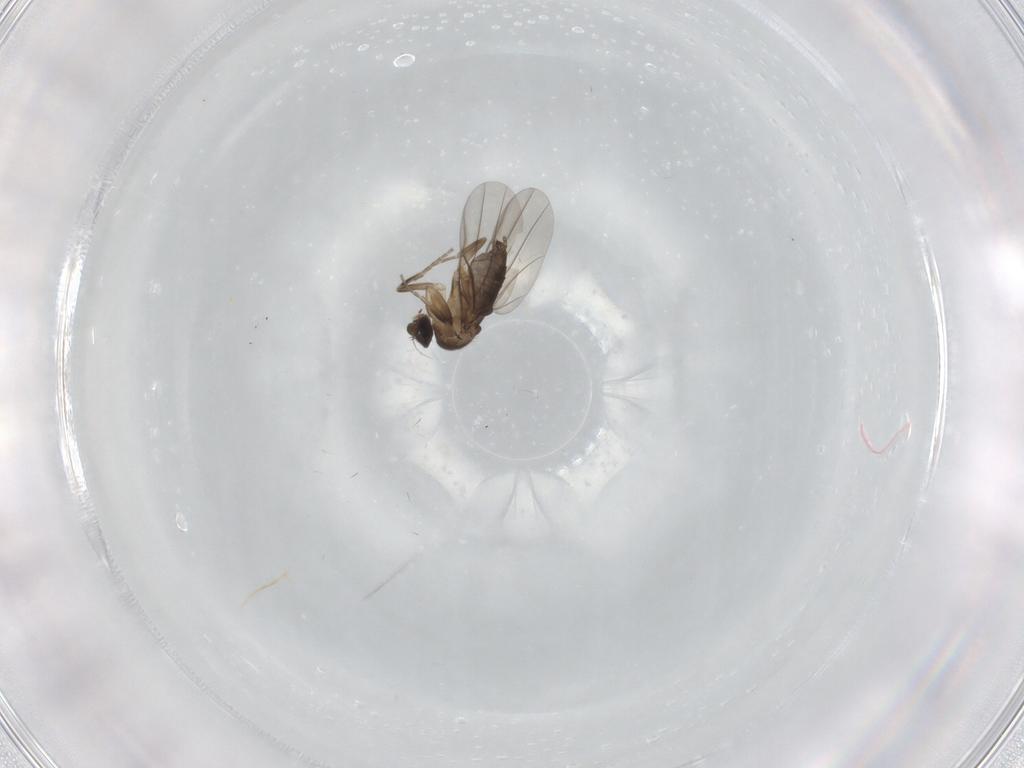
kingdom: Animalia
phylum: Arthropoda
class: Insecta
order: Diptera
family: Phoridae
